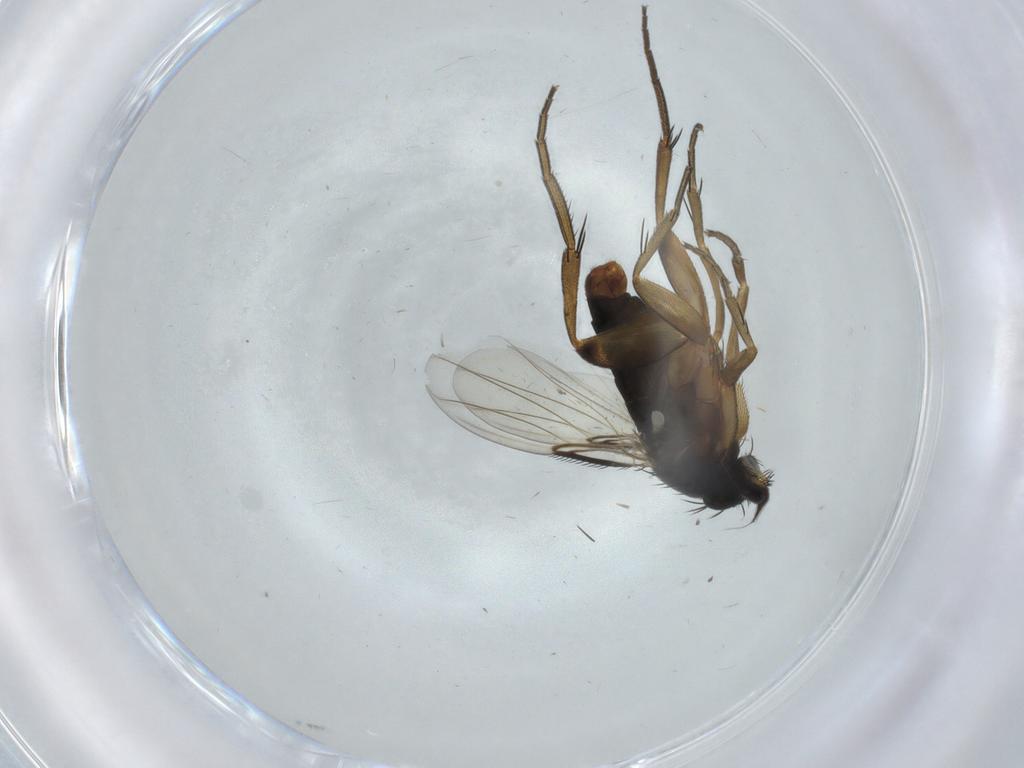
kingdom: Animalia
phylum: Arthropoda
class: Insecta
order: Diptera
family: Phoridae
